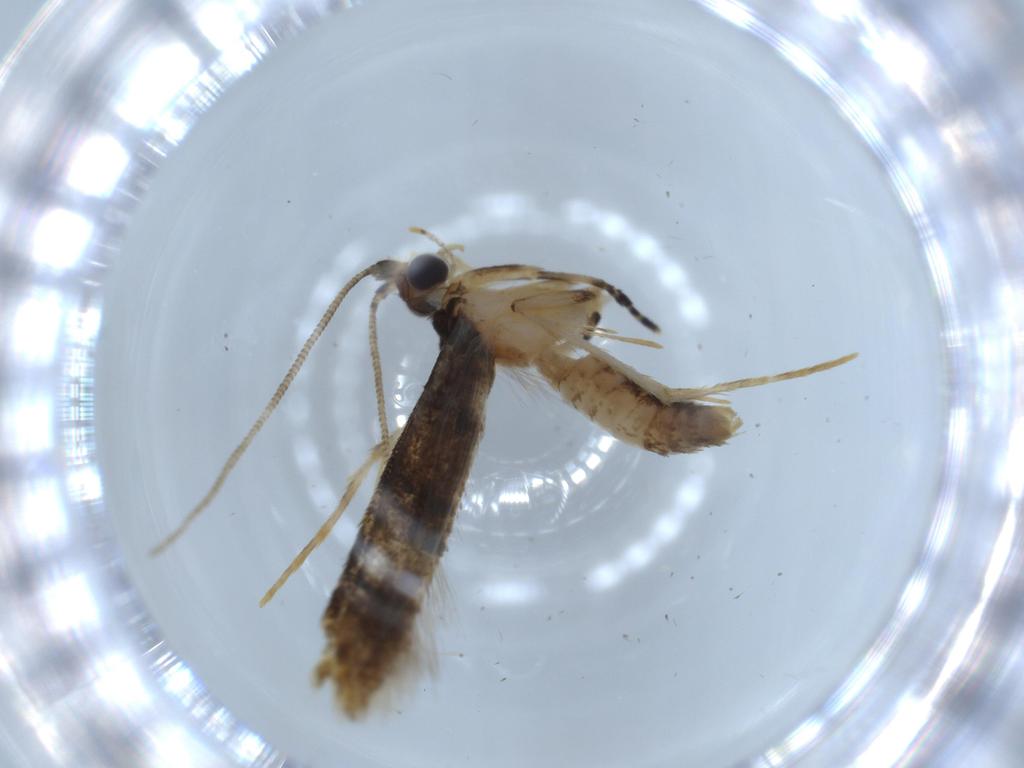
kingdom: Animalia
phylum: Arthropoda
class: Insecta
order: Lepidoptera
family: Tineidae
